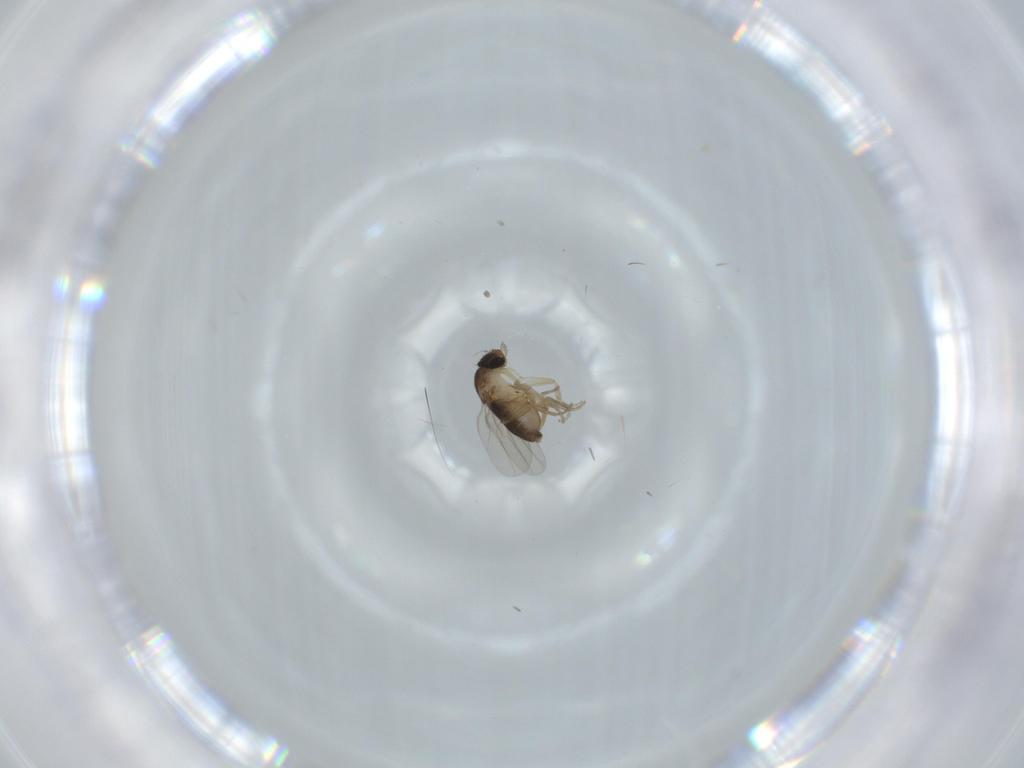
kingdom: Animalia
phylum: Arthropoda
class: Insecta
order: Diptera
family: Phoridae
